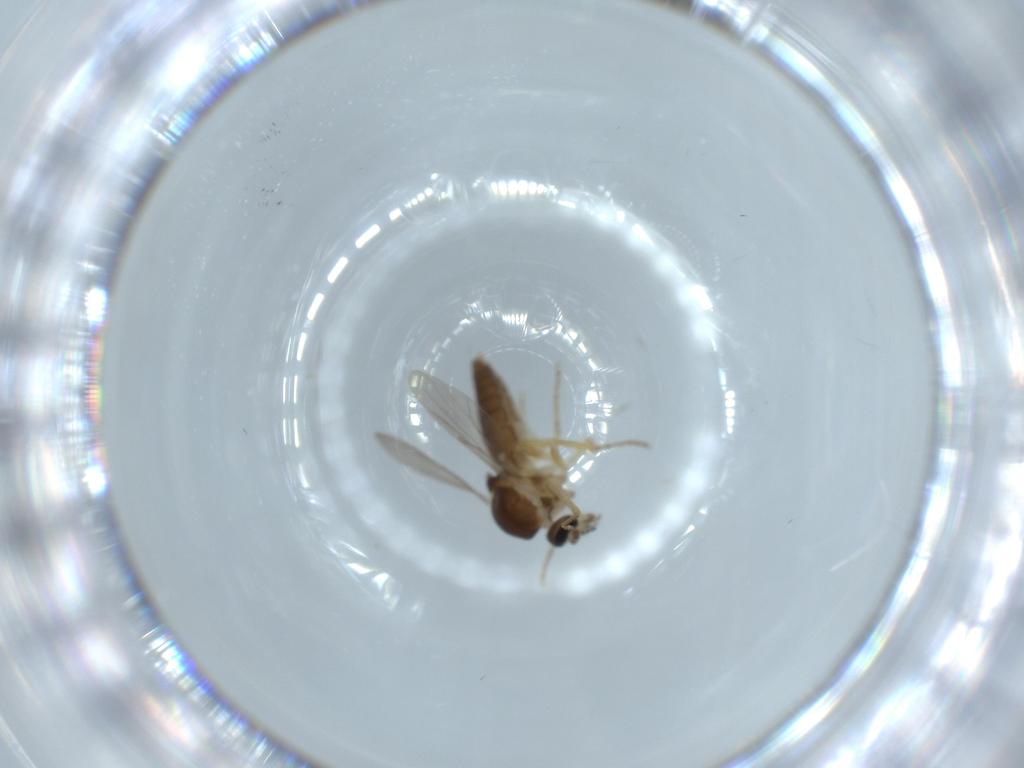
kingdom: Animalia
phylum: Arthropoda
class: Insecta
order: Diptera
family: Ceratopogonidae
